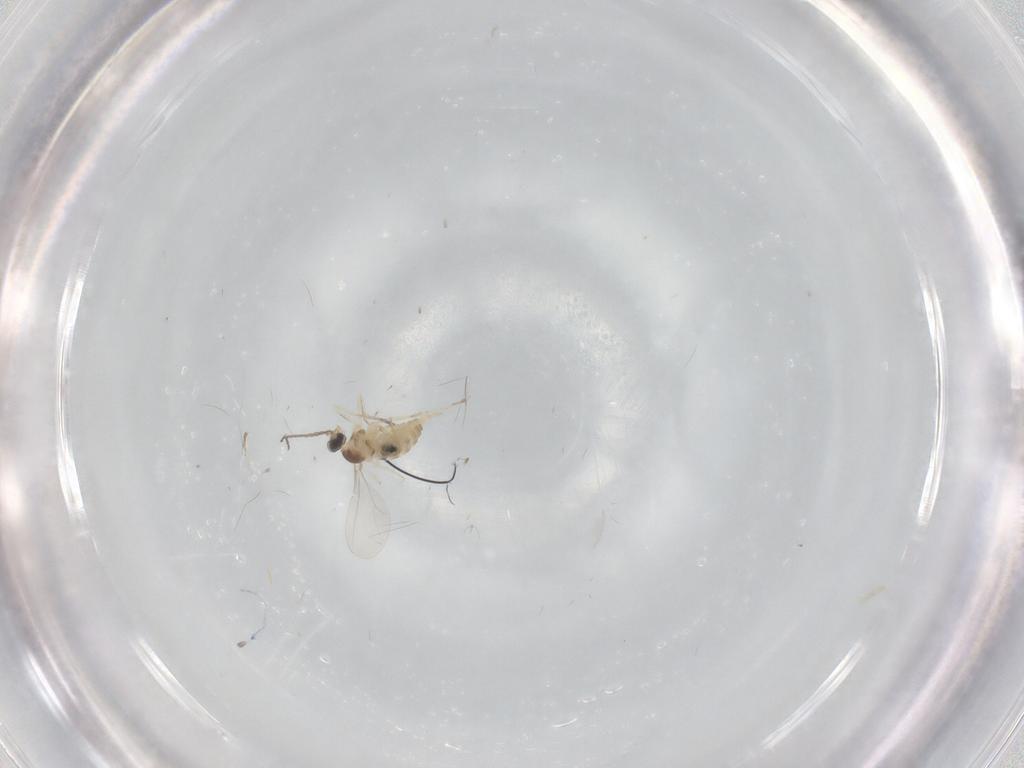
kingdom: Animalia
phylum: Arthropoda
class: Insecta
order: Diptera
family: Cecidomyiidae
